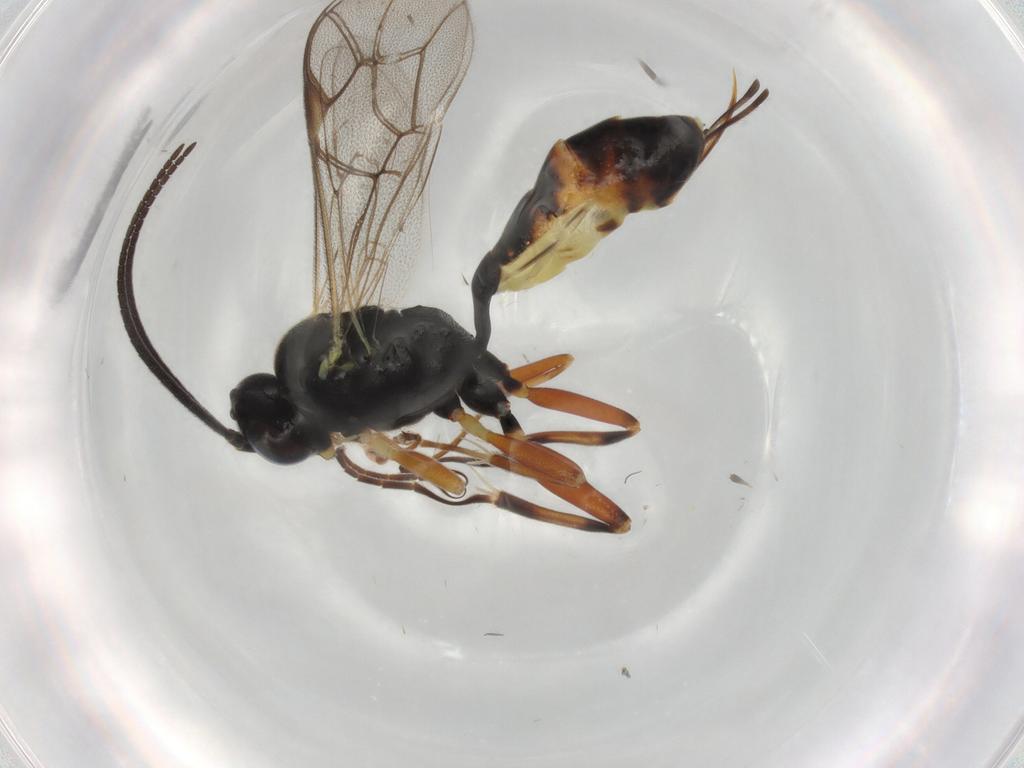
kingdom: Animalia
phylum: Arthropoda
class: Insecta
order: Hymenoptera
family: Ichneumonidae
